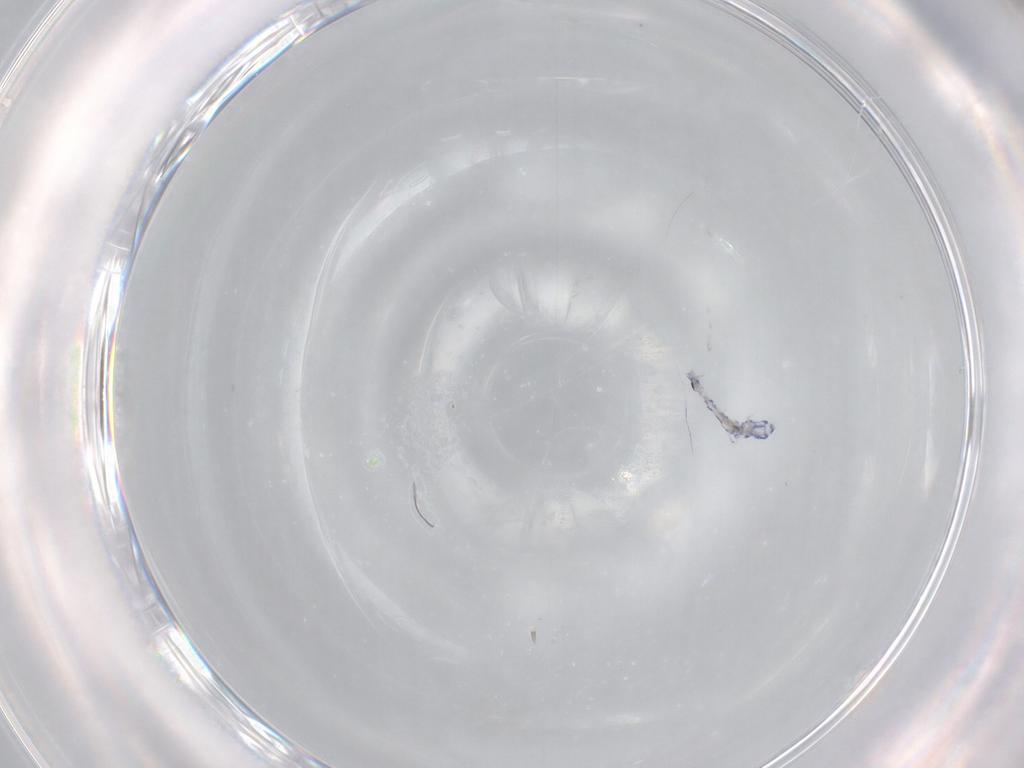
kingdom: Animalia
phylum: Arthropoda
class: Collembola
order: Entomobryomorpha
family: Entomobryidae
